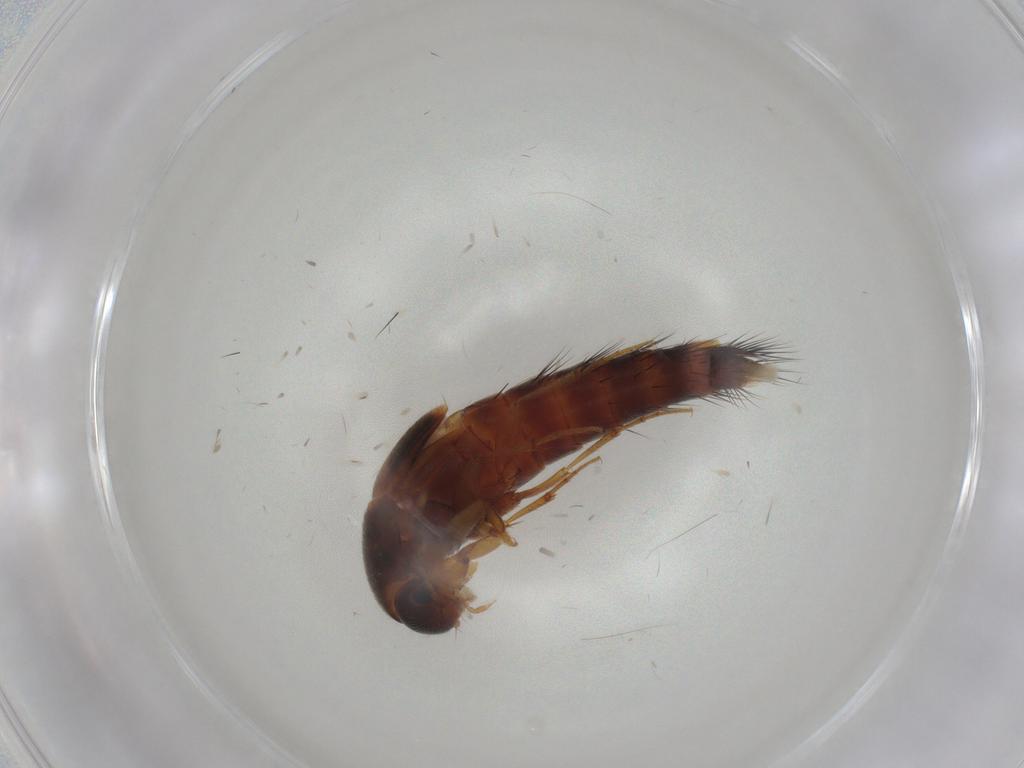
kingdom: Animalia
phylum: Arthropoda
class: Insecta
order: Coleoptera
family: Staphylinidae
